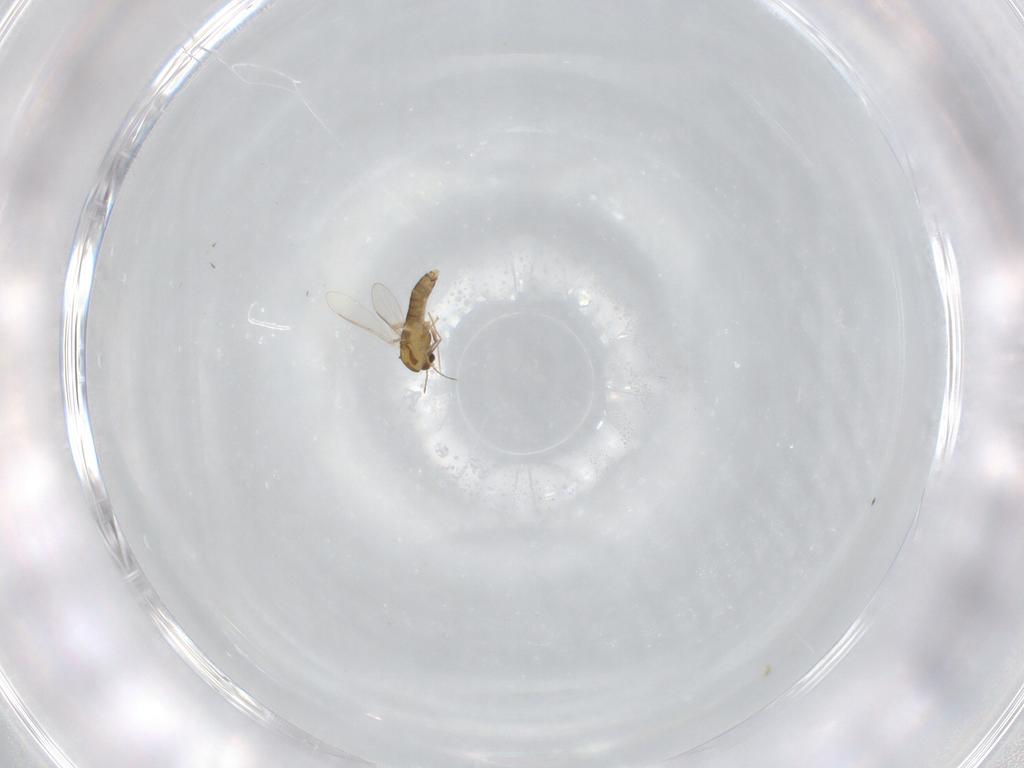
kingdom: Animalia
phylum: Arthropoda
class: Insecta
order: Diptera
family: Drosophilidae
